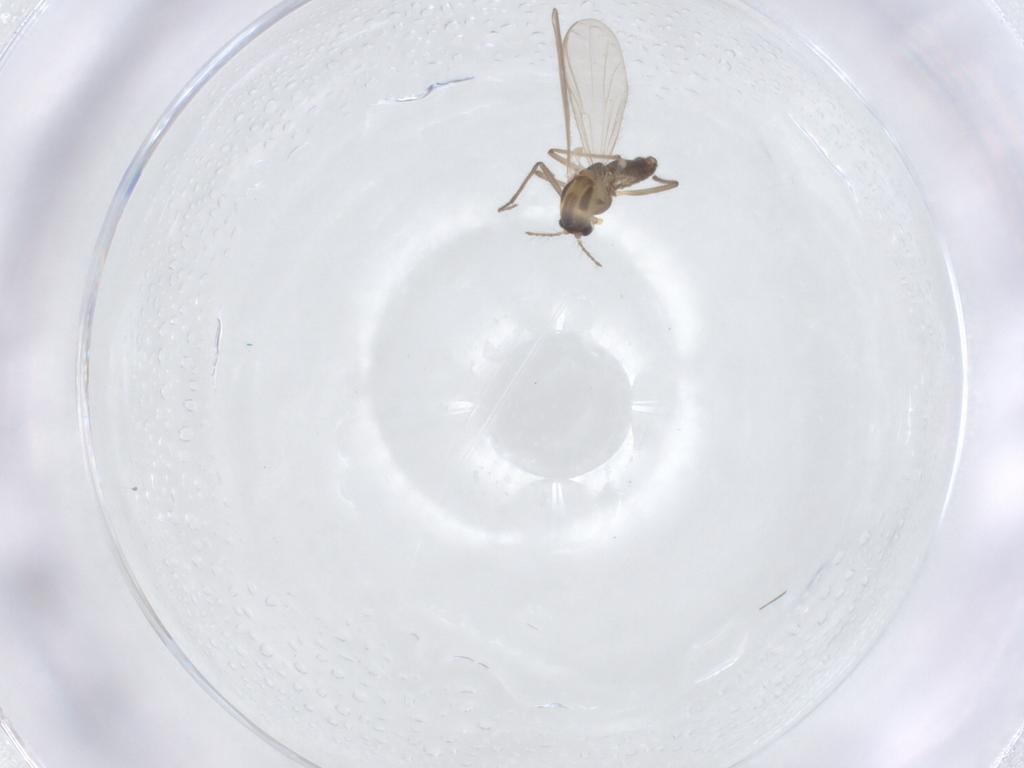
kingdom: Animalia
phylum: Arthropoda
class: Insecta
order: Diptera
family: Chironomidae
